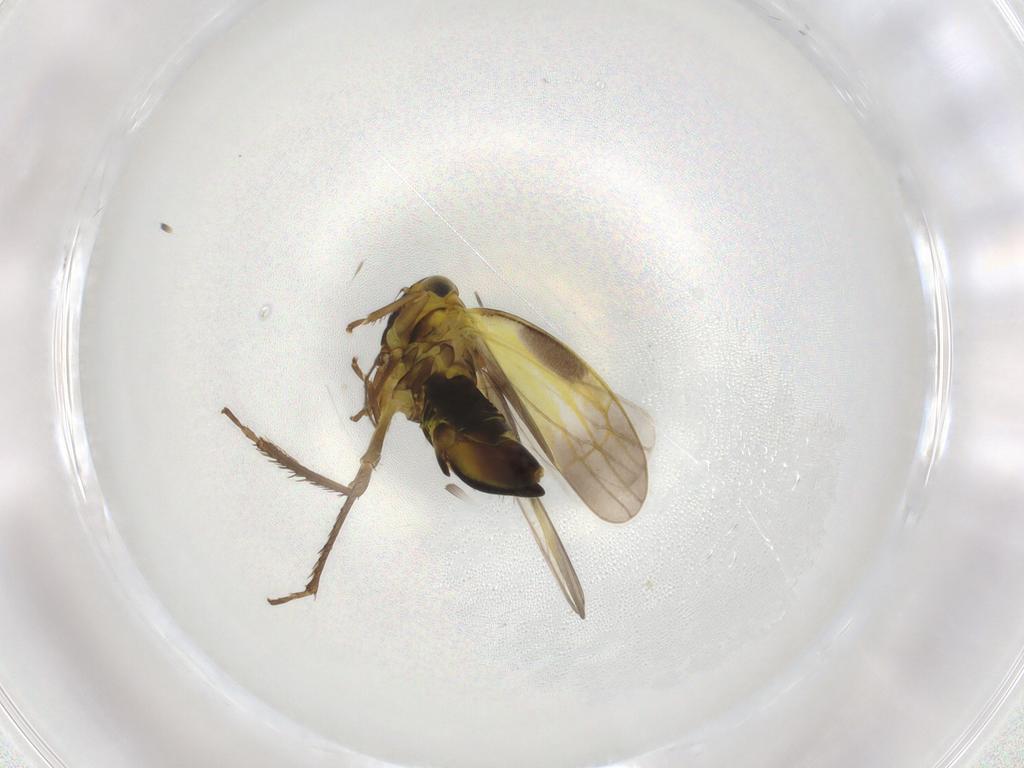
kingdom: Animalia
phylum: Arthropoda
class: Insecta
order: Hemiptera
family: Cicadellidae
